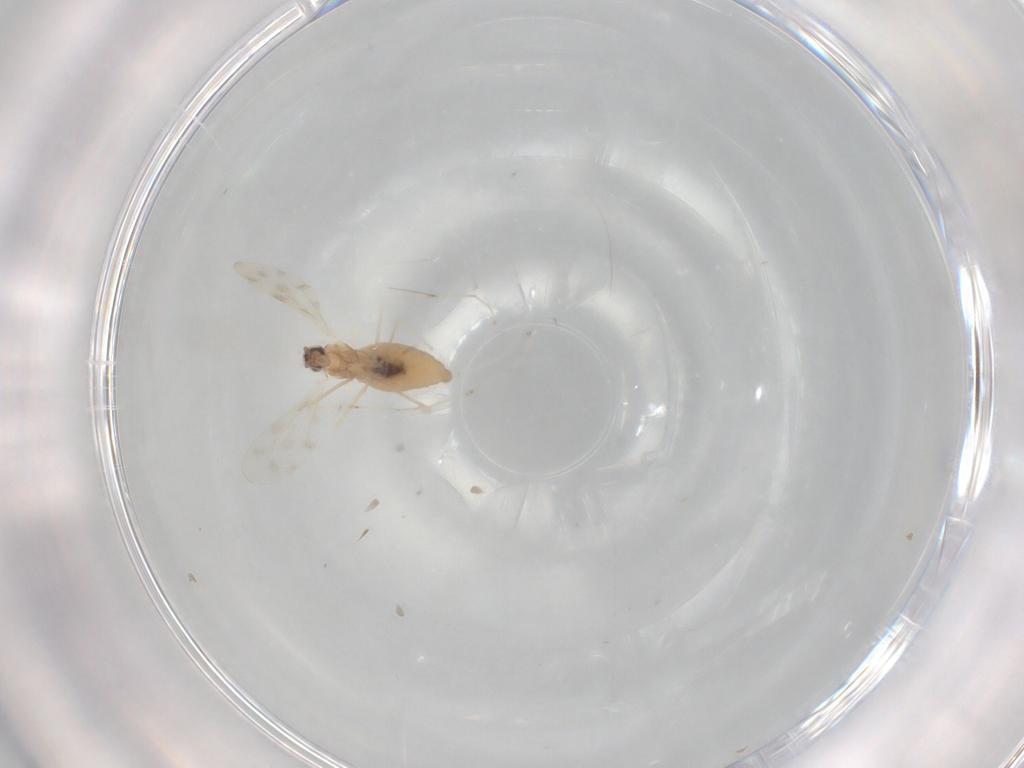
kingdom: Animalia
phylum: Arthropoda
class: Insecta
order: Diptera
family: Cecidomyiidae
